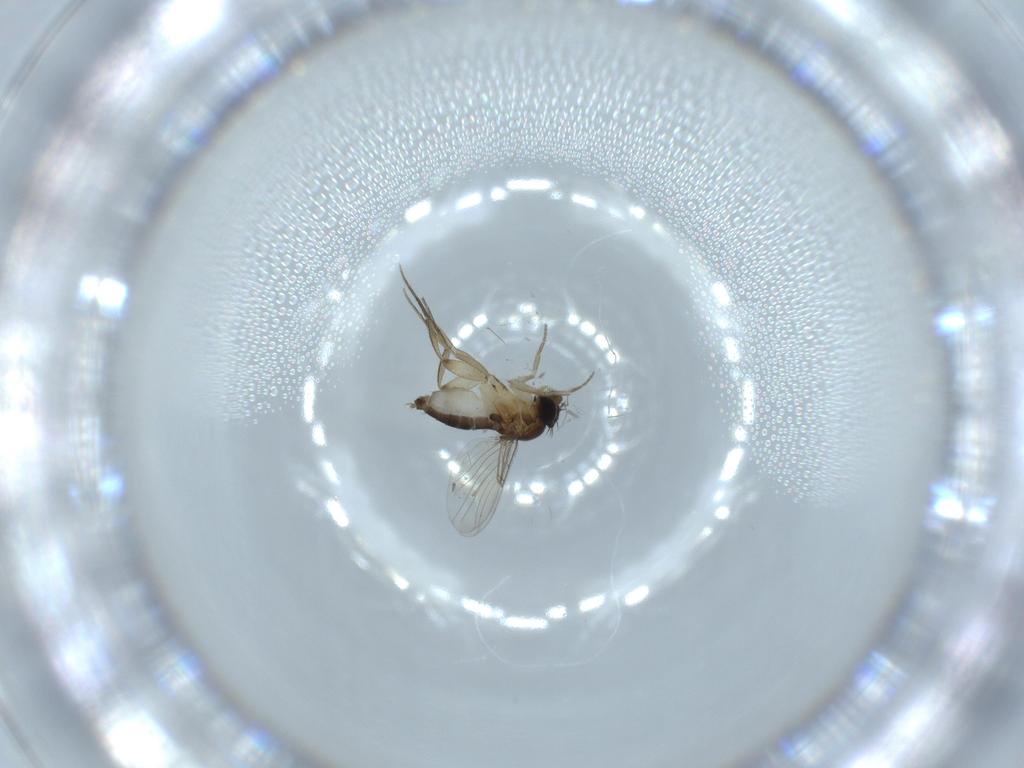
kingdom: Animalia
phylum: Arthropoda
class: Insecta
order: Diptera
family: Phoridae
